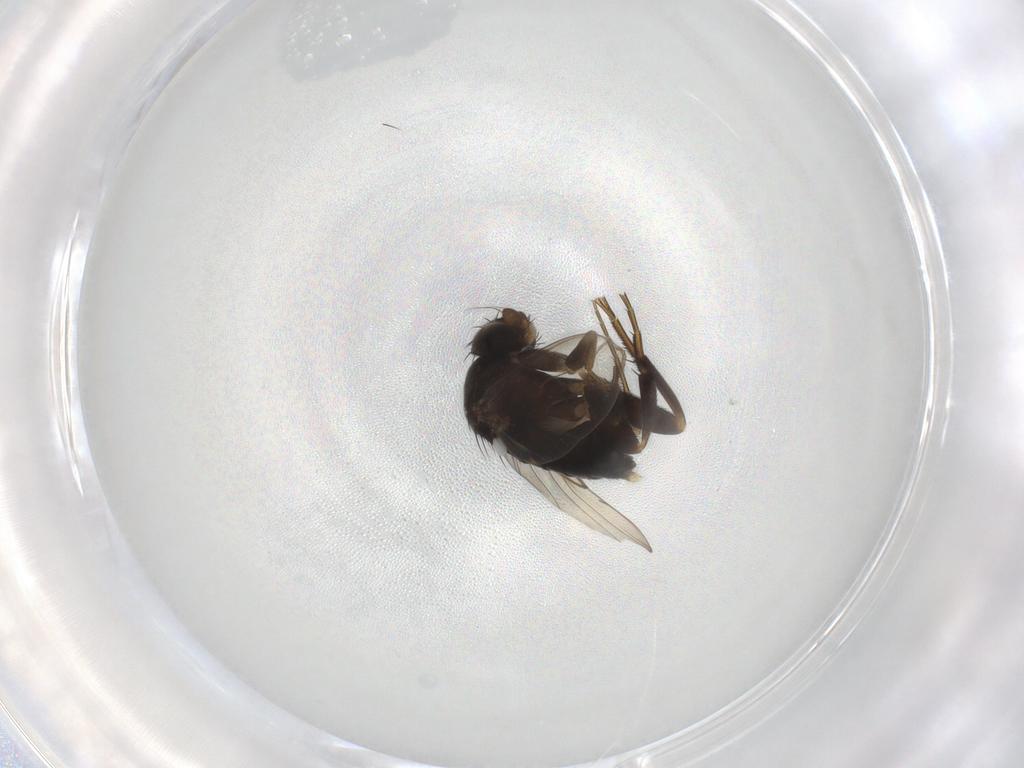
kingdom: Animalia
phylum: Arthropoda
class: Insecta
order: Diptera
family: Phoridae
